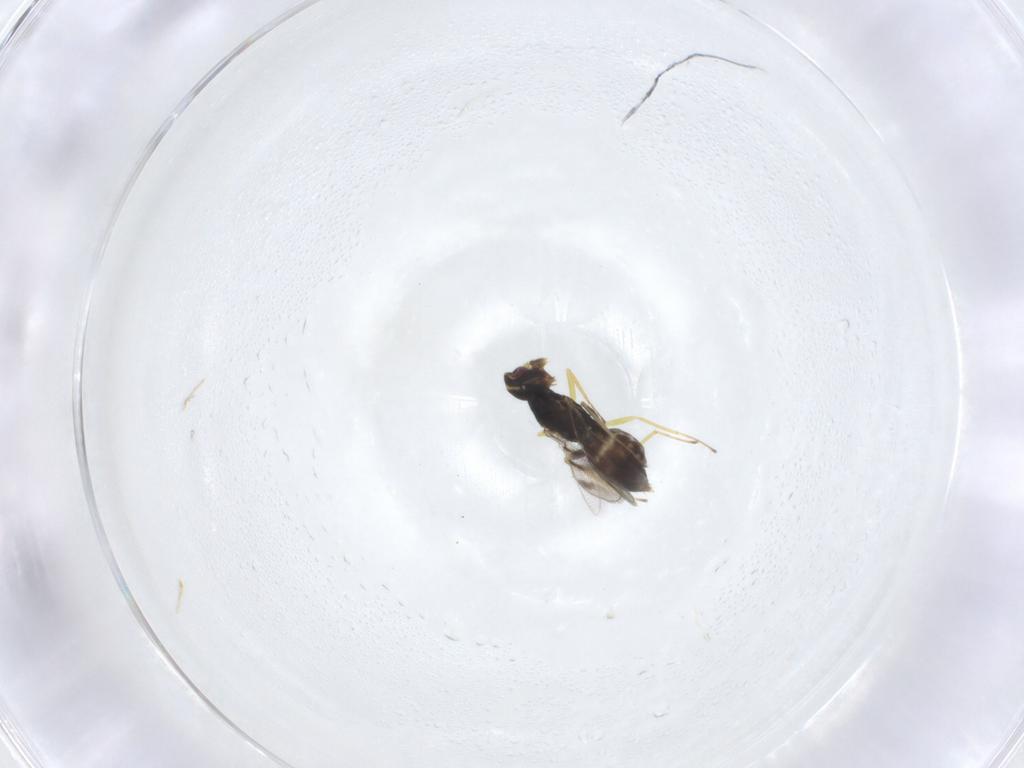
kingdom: Animalia
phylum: Arthropoda
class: Insecta
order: Hymenoptera
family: Eulophidae
